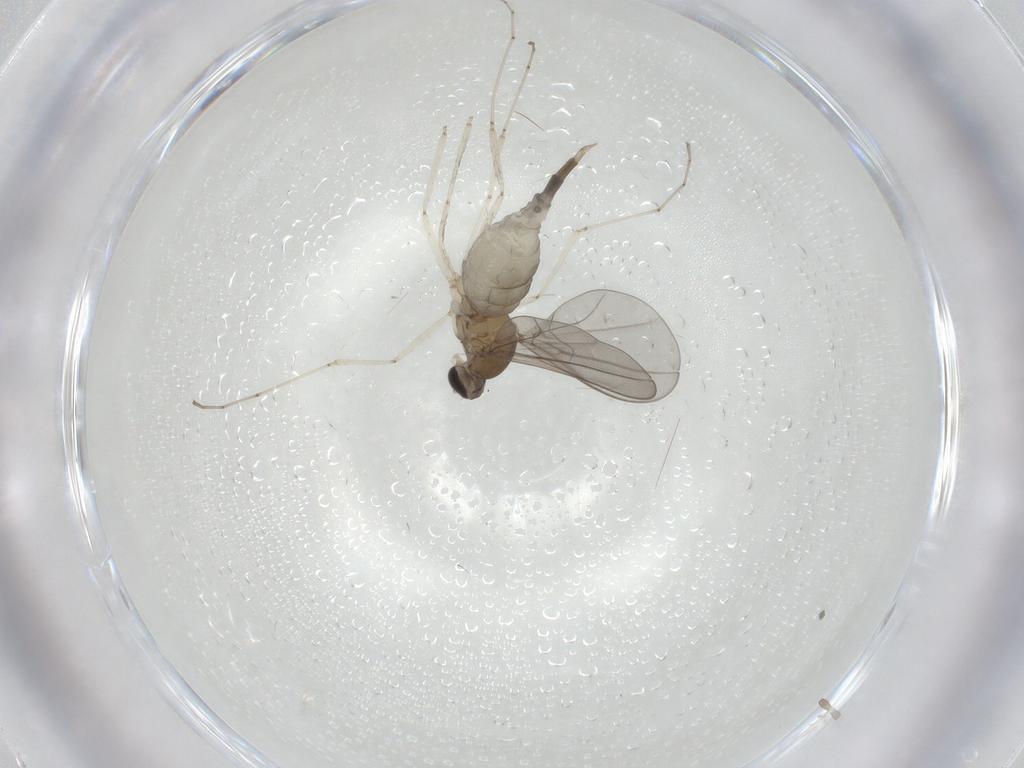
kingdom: Animalia
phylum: Arthropoda
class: Insecta
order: Diptera
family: Cecidomyiidae
